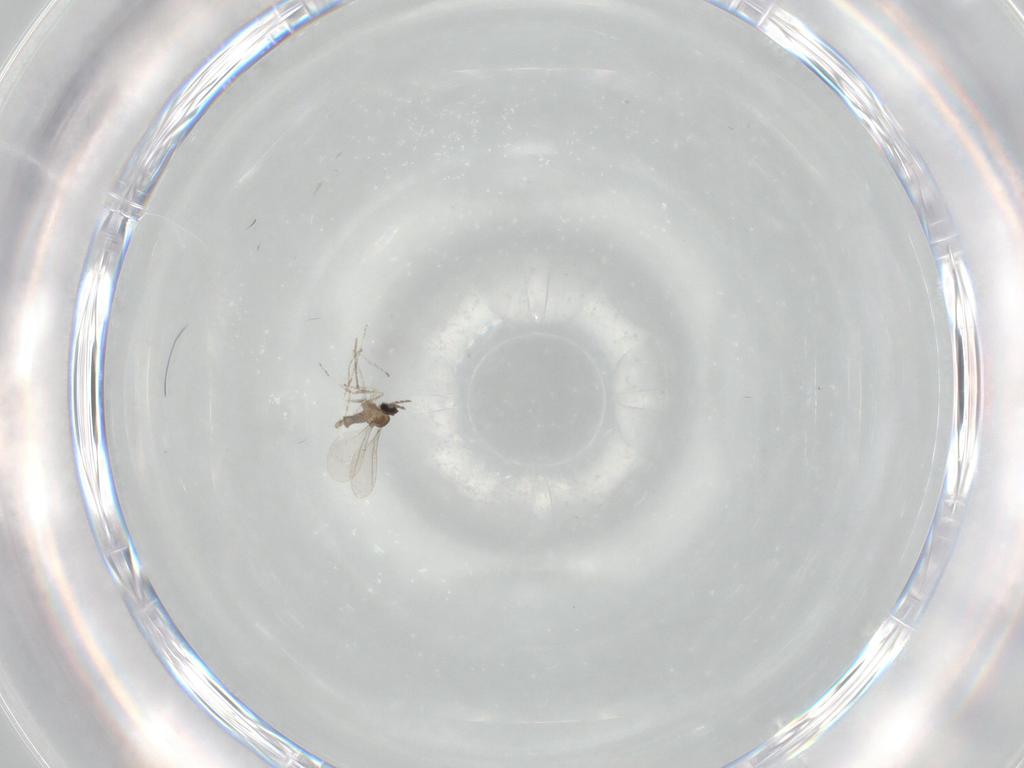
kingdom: Animalia
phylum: Arthropoda
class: Insecta
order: Diptera
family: Cecidomyiidae
